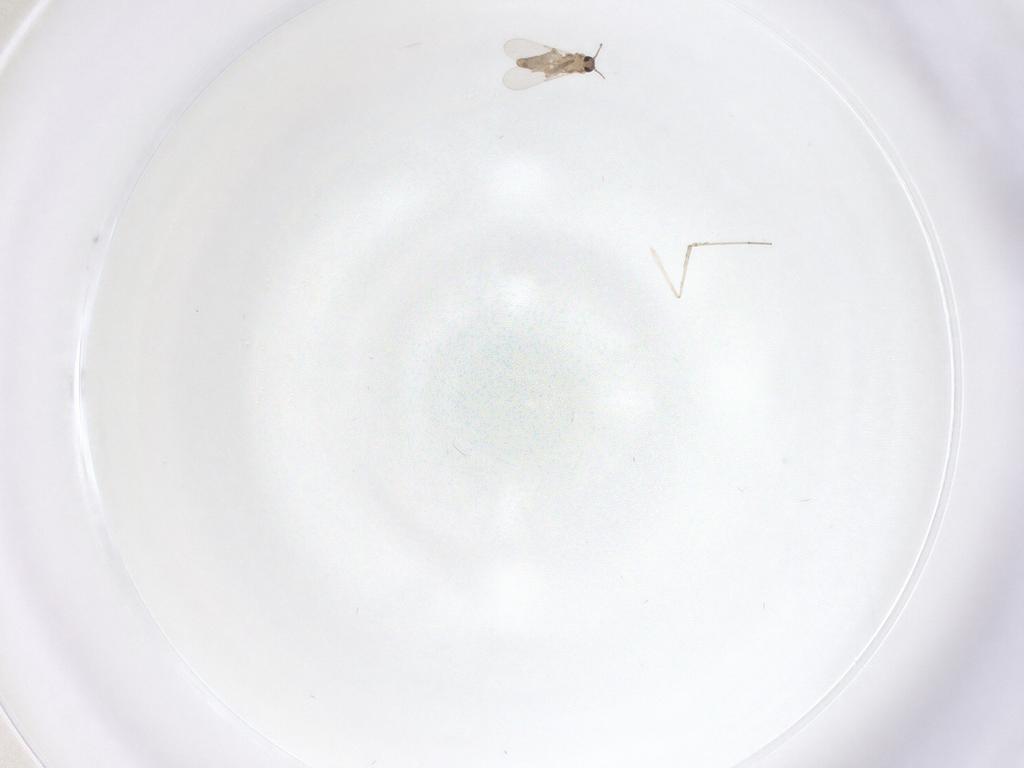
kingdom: Animalia
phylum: Arthropoda
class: Insecta
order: Diptera
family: Ceratopogonidae
